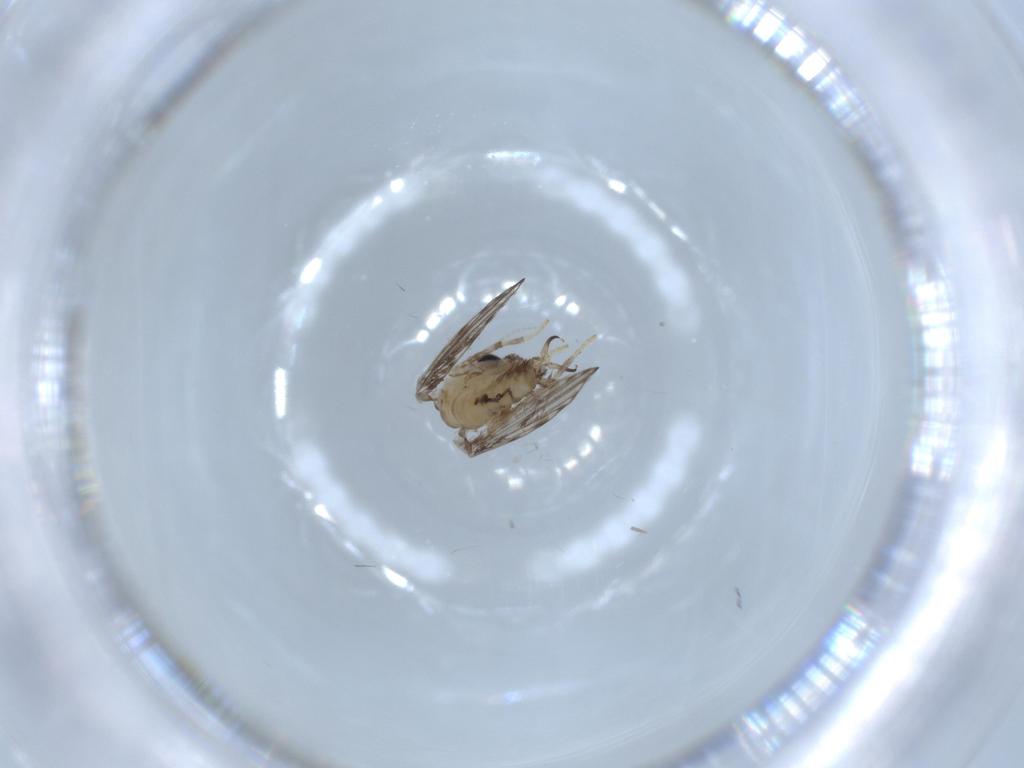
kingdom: Animalia
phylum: Arthropoda
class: Insecta
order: Diptera
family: Psychodidae
